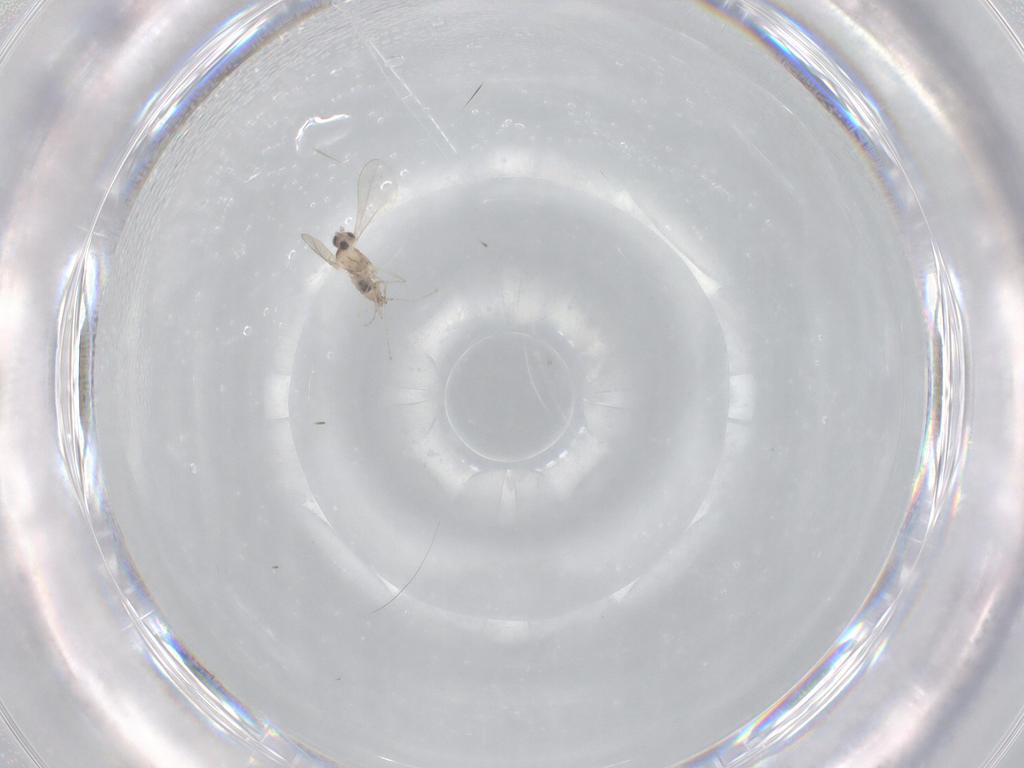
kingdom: Animalia
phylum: Arthropoda
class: Insecta
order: Diptera
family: Cecidomyiidae
